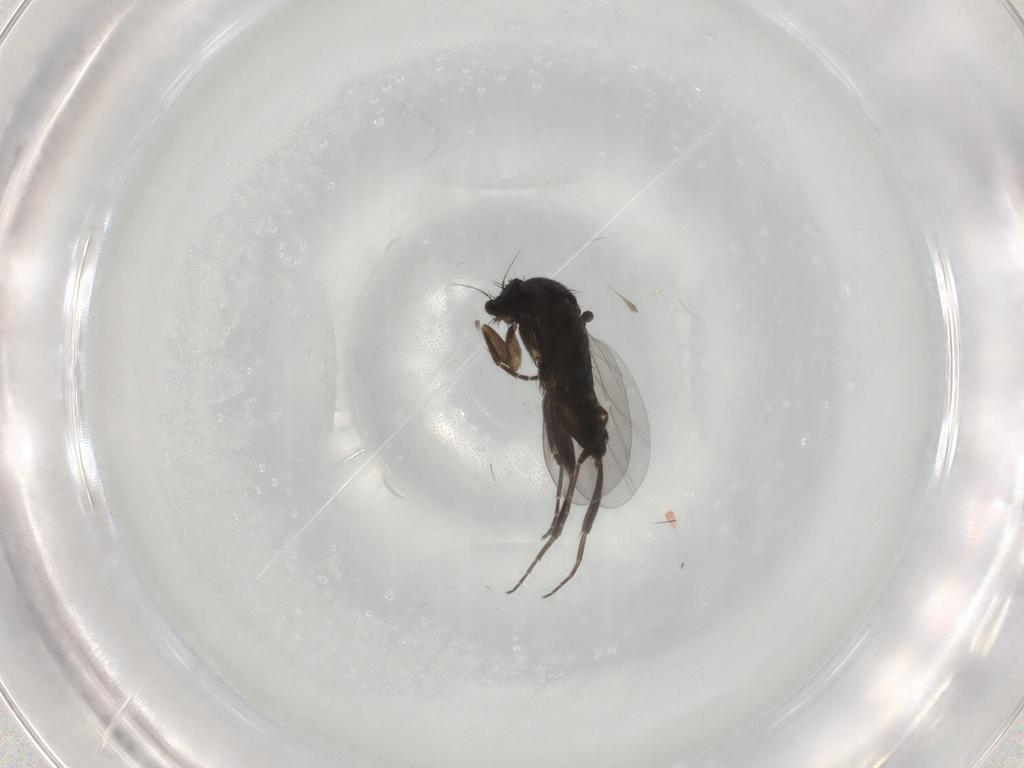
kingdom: Animalia
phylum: Arthropoda
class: Insecta
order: Diptera
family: Phoridae
